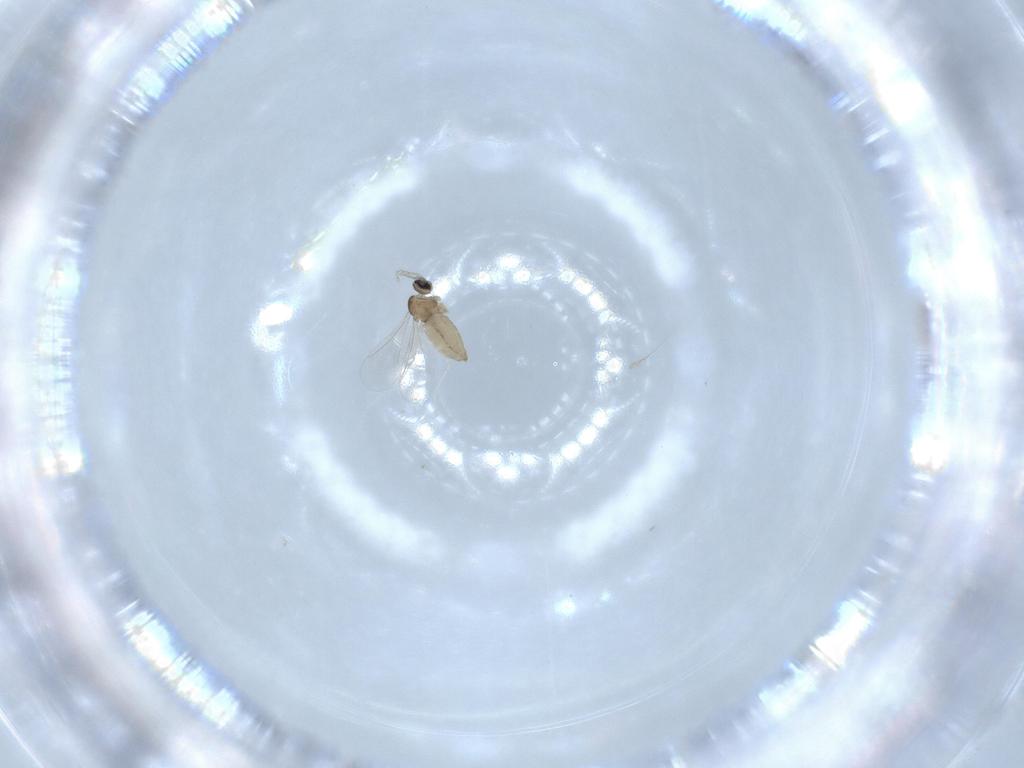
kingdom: Animalia
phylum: Arthropoda
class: Insecta
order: Diptera
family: Cecidomyiidae
